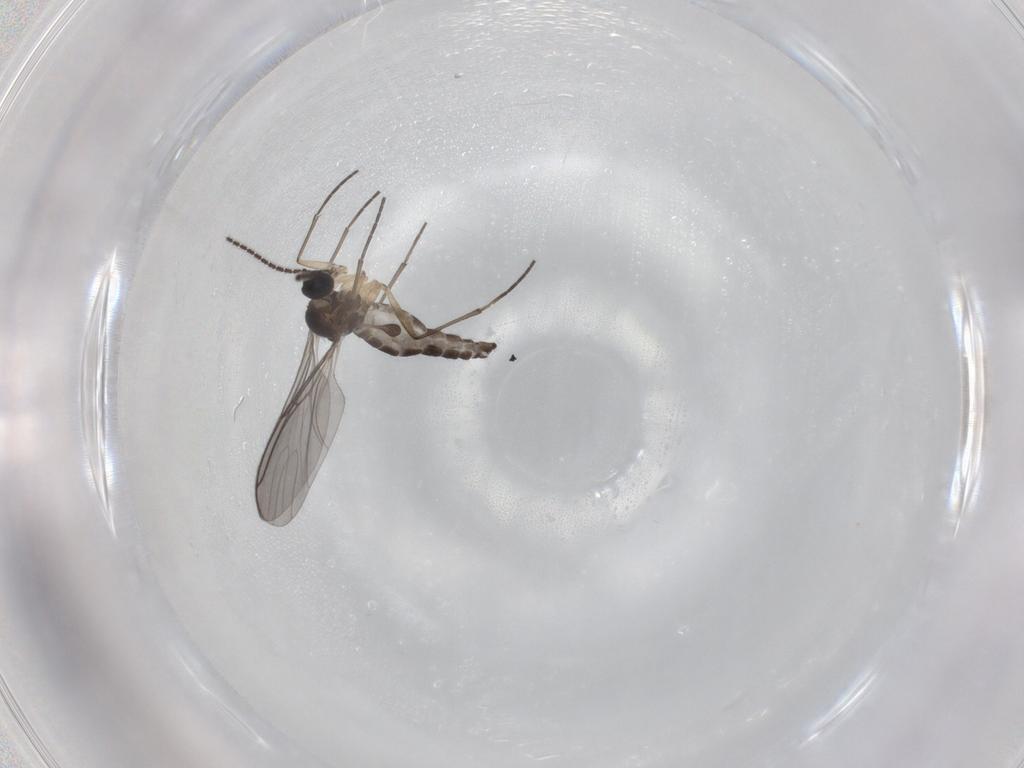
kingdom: Animalia
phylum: Arthropoda
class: Insecta
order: Diptera
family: Sciaridae
